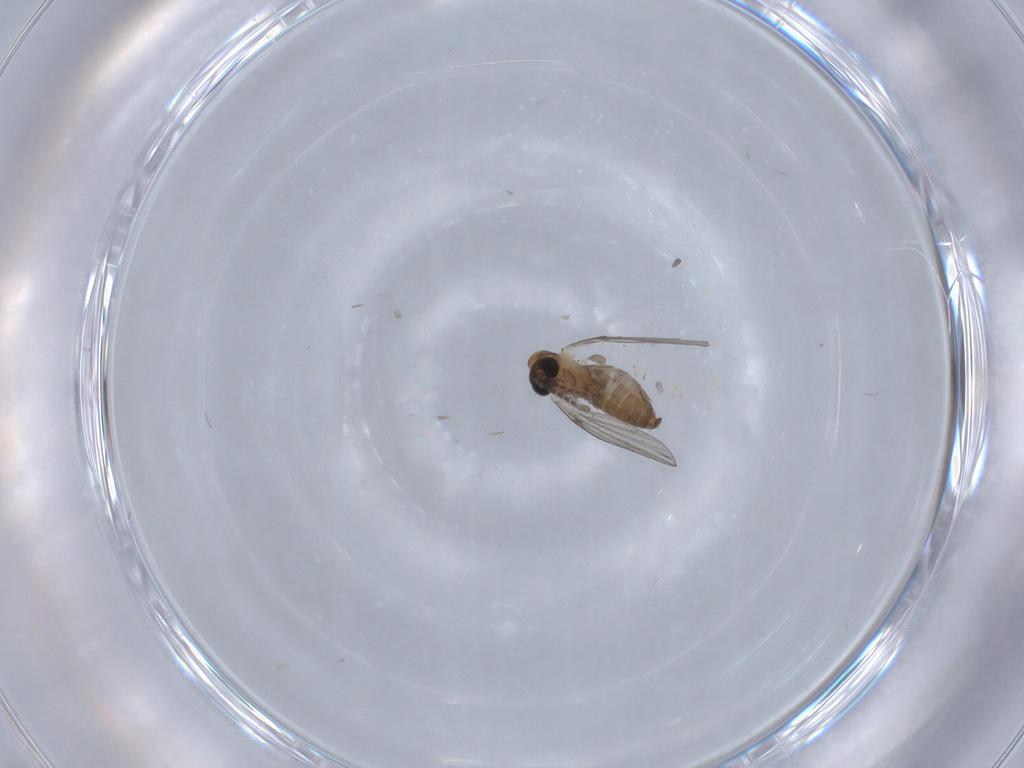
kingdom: Animalia
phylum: Arthropoda
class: Insecta
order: Diptera
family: Psychodidae
